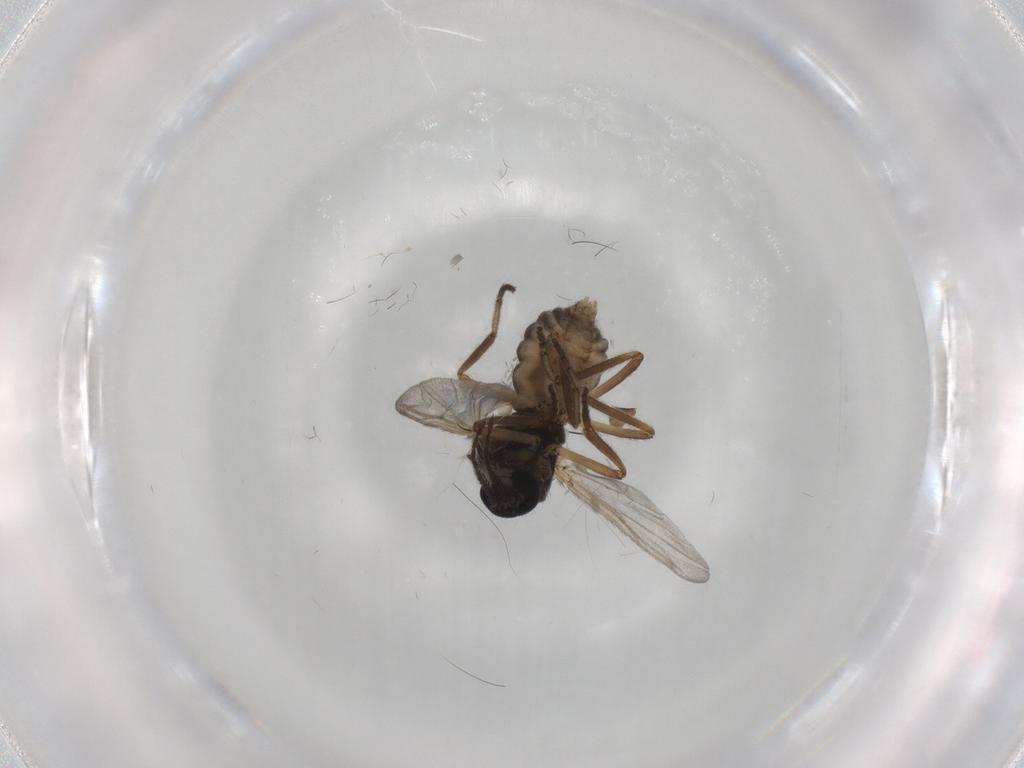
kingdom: Animalia
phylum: Arthropoda
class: Insecta
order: Diptera
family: Ceratopogonidae
